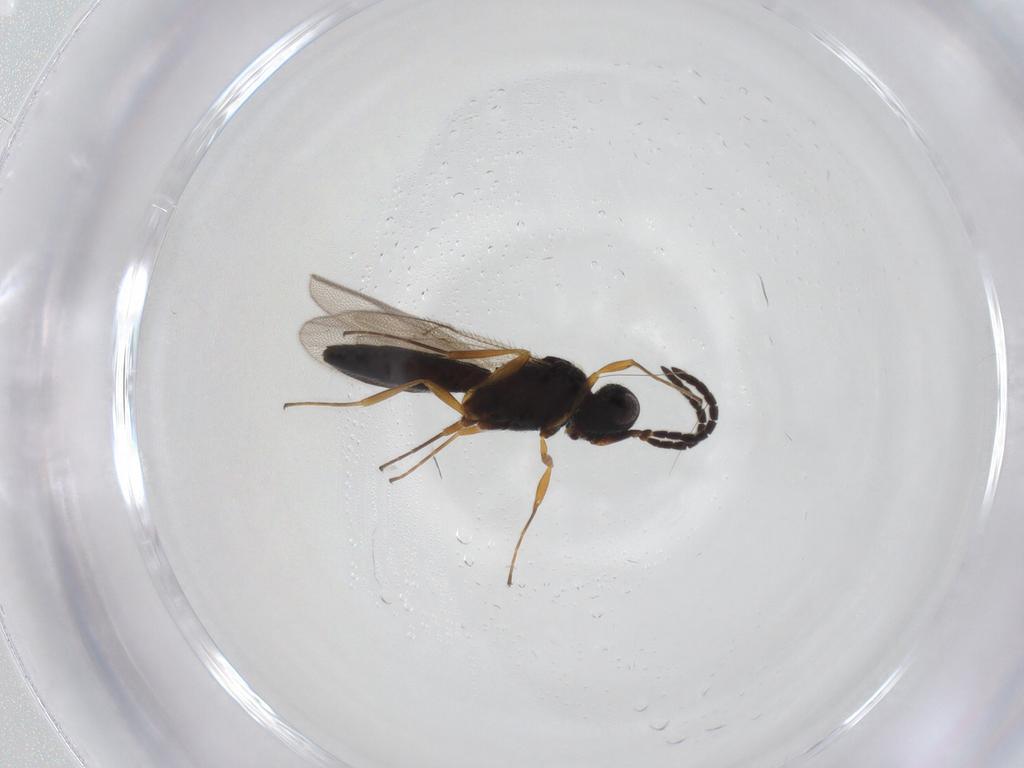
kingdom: Animalia
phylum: Arthropoda
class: Insecta
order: Hymenoptera
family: Scelionidae
